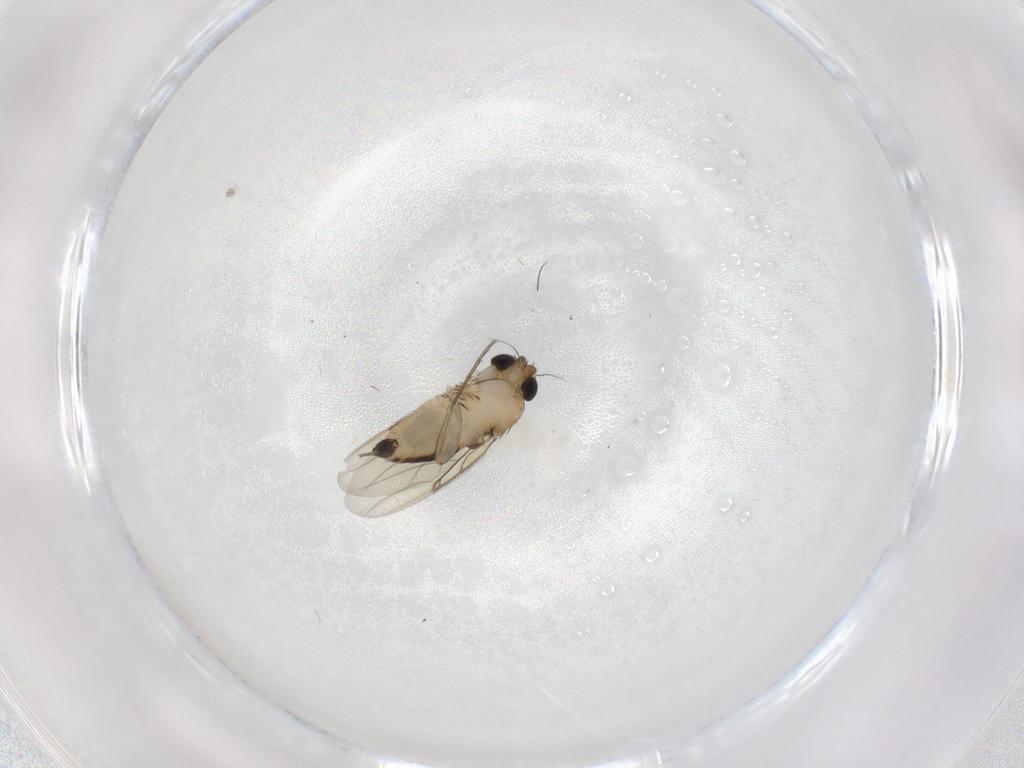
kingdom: Animalia
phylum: Arthropoda
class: Insecta
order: Diptera
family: Phoridae
